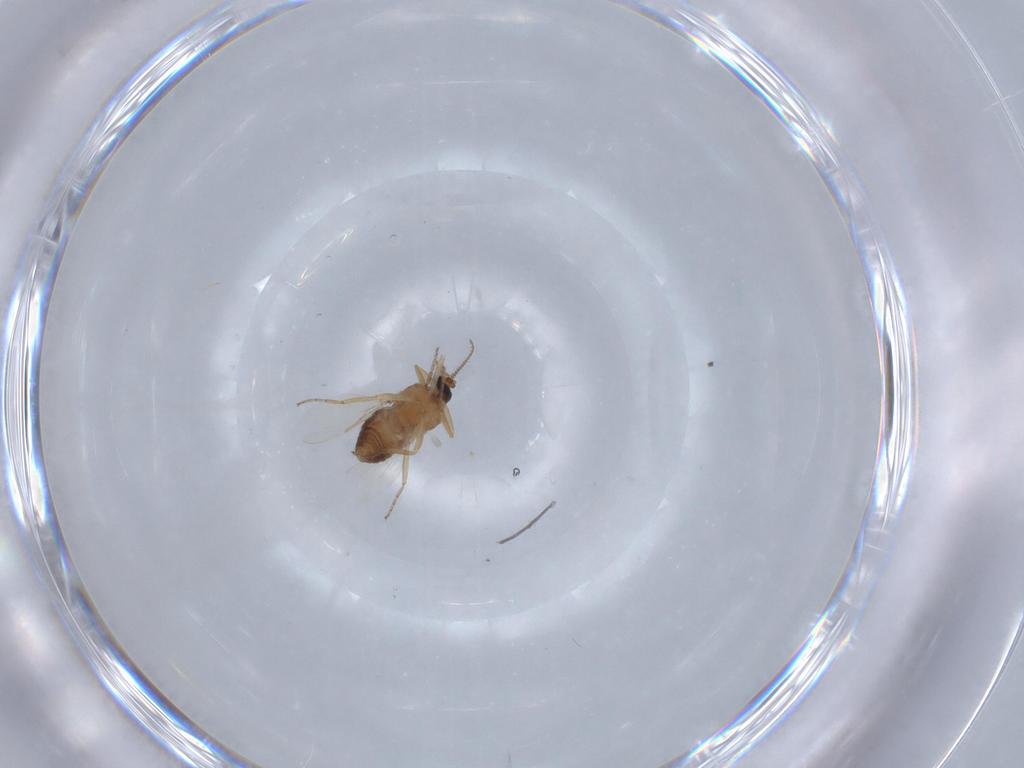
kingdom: Animalia
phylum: Arthropoda
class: Insecta
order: Diptera
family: Ceratopogonidae
